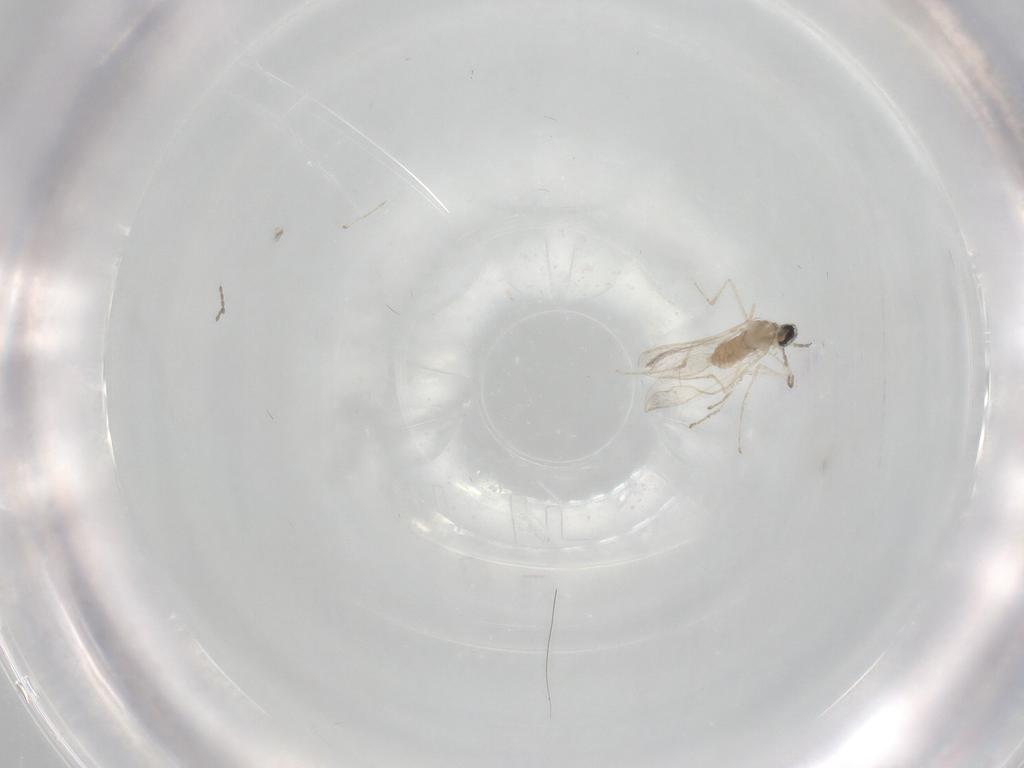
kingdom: Animalia
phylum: Arthropoda
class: Insecta
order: Diptera
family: Cecidomyiidae
